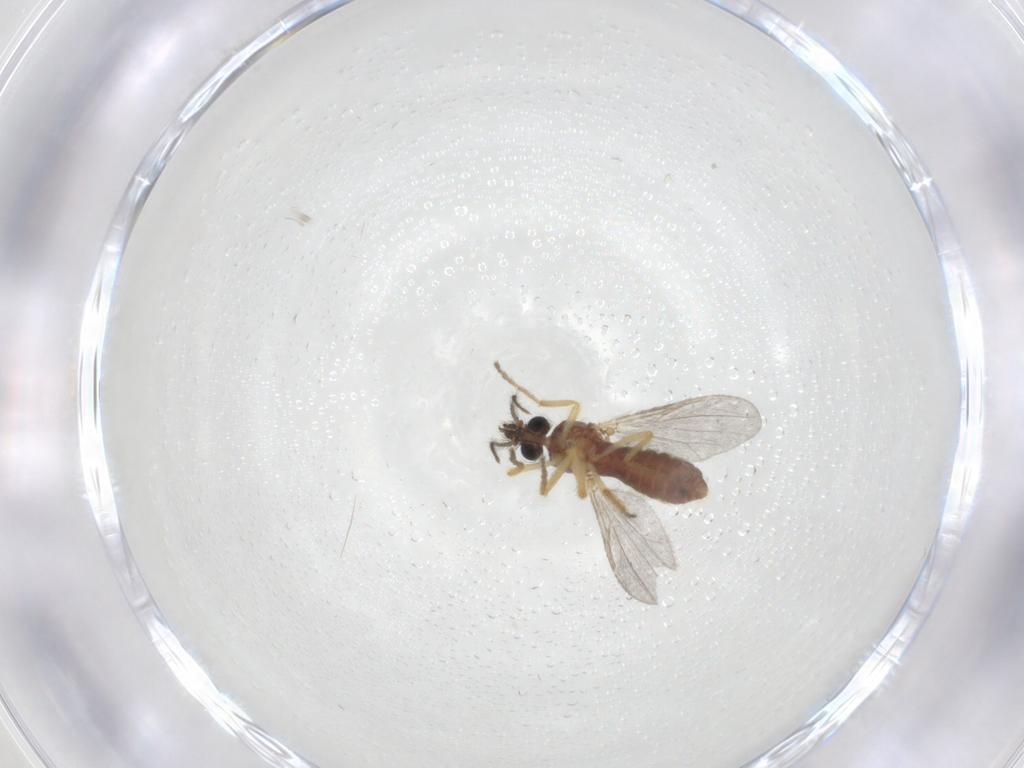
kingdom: Animalia
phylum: Arthropoda
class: Insecta
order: Diptera
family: Ceratopogonidae
